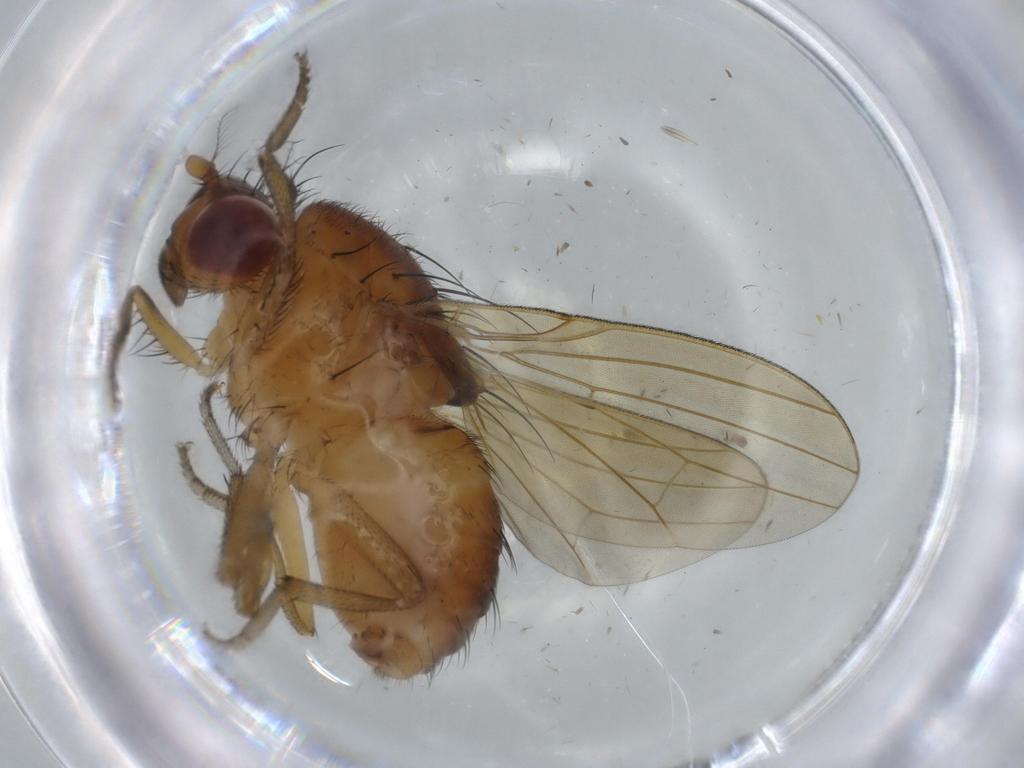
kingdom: Animalia
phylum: Arthropoda
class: Insecta
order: Diptera
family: Lauxaniidae
